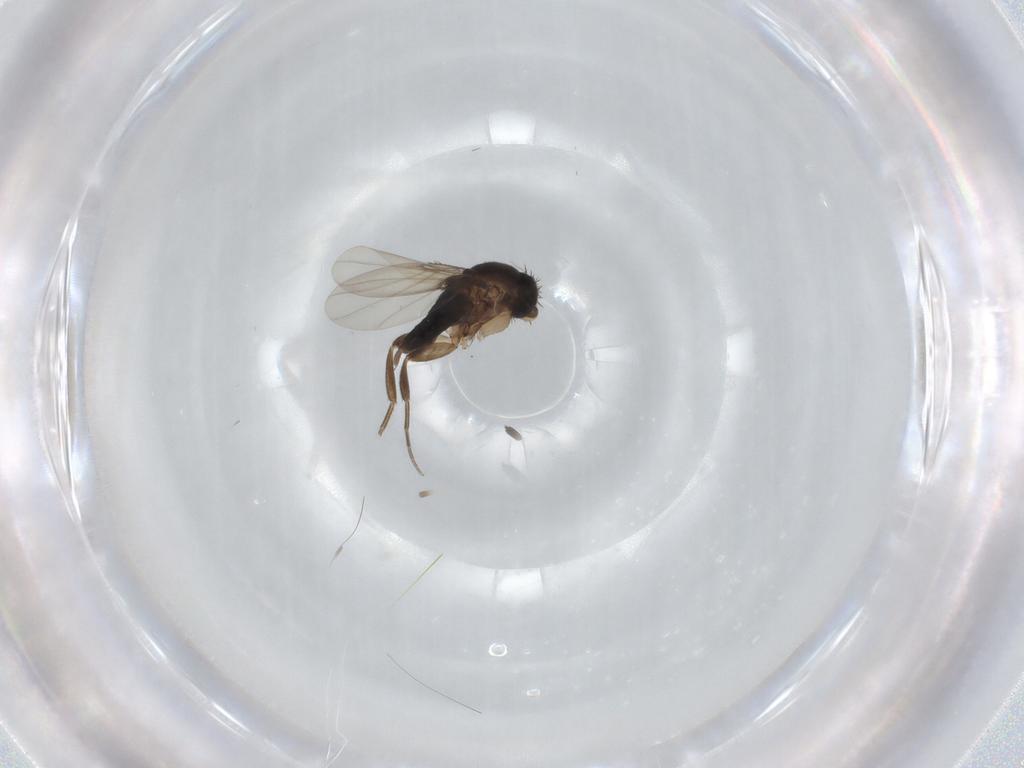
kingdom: Animalia
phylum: Arthropoda
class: Insecta
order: Diptera
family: Phoridae
